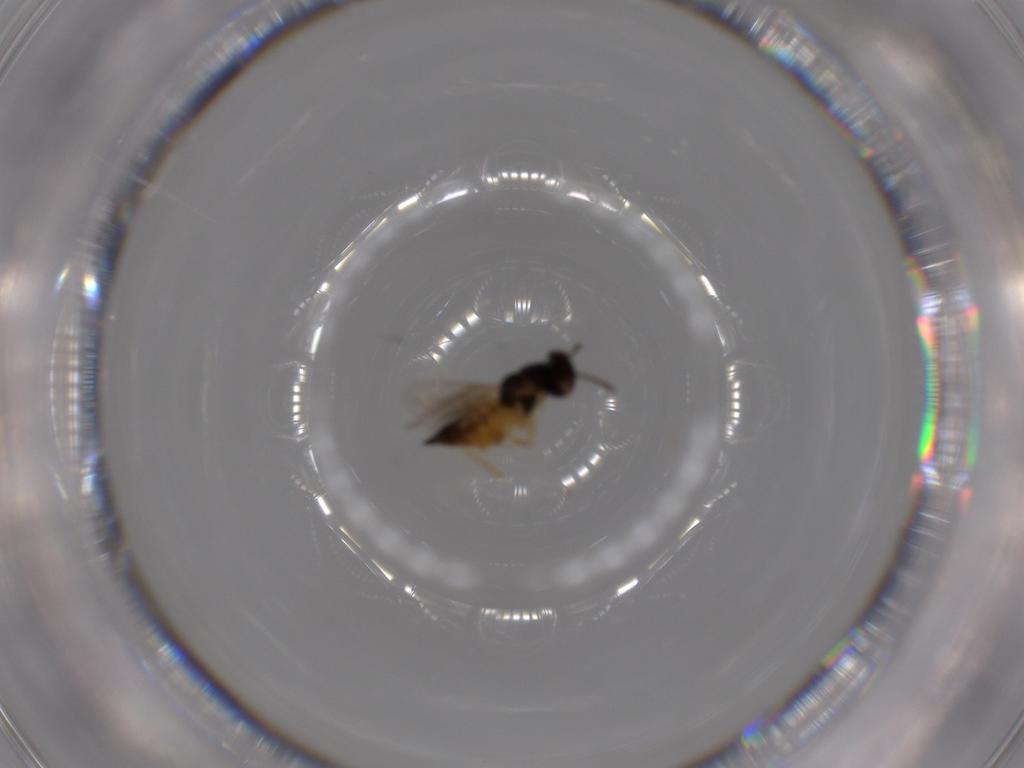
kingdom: Animalia
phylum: Arthropoda
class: Insecta
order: Hymenoptera
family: Eulophidae
